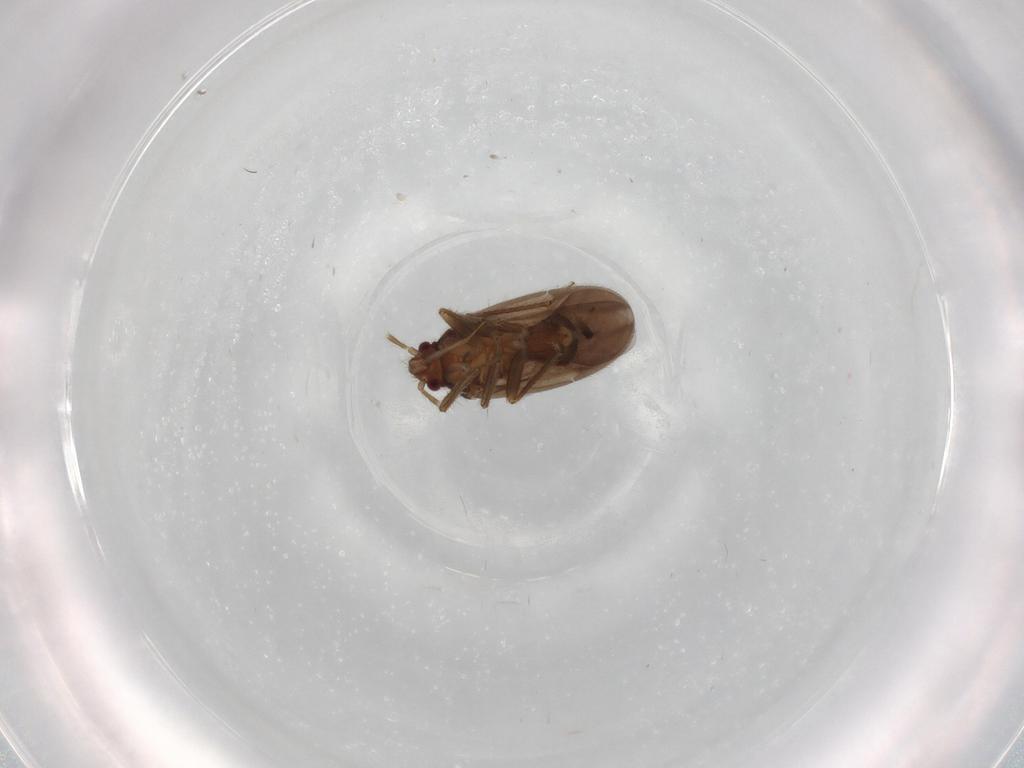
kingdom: Animalia
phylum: Arthropoda
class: Insecta
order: Hemiptera
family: Ceratocombidae
